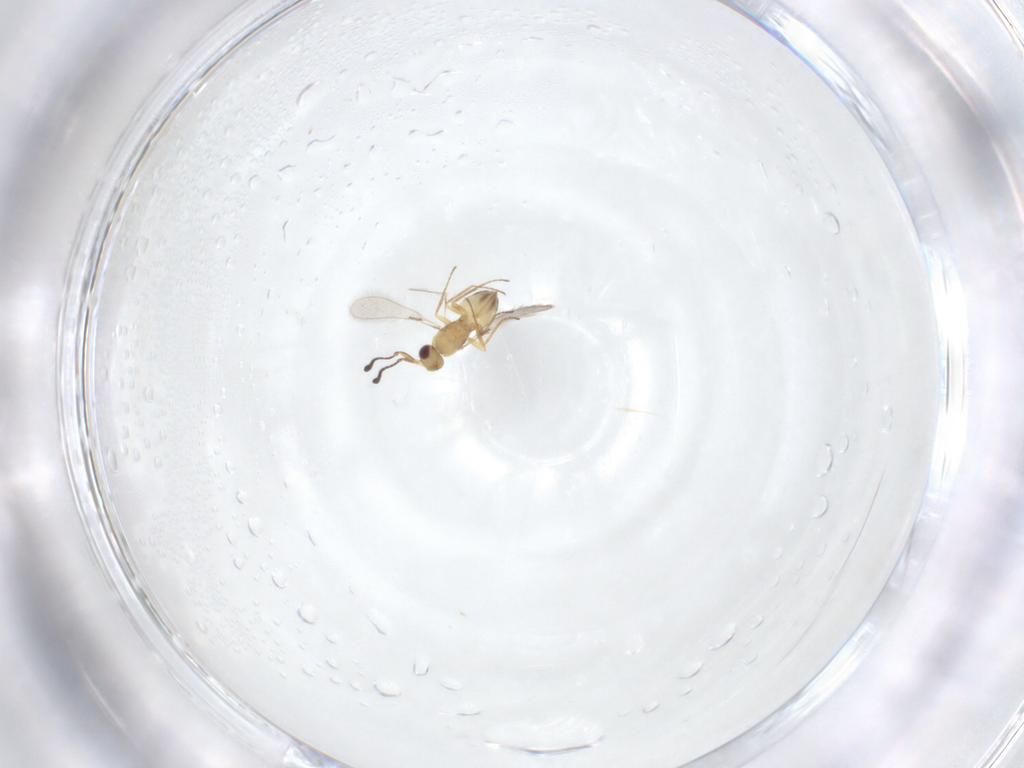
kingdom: Animalia
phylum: Arthropoda
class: Insecta
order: Hymenoptera
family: Mymaridae
